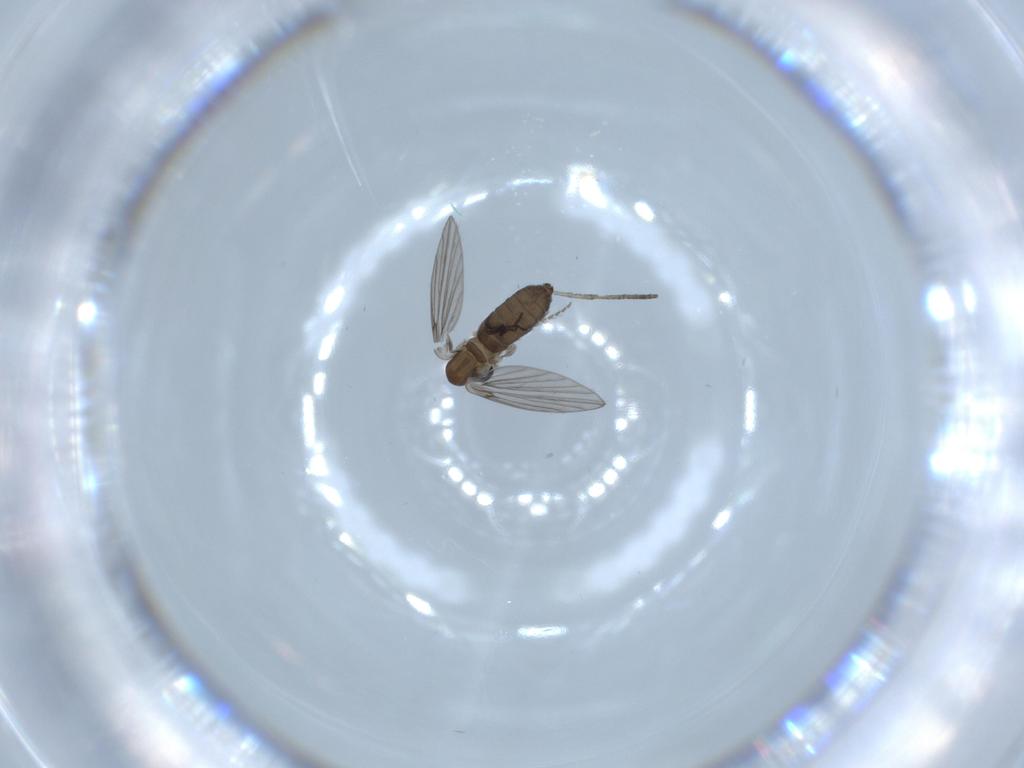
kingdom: Animalia
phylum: Arthropoda
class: Insecta
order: Diptera
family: Psychodidae
